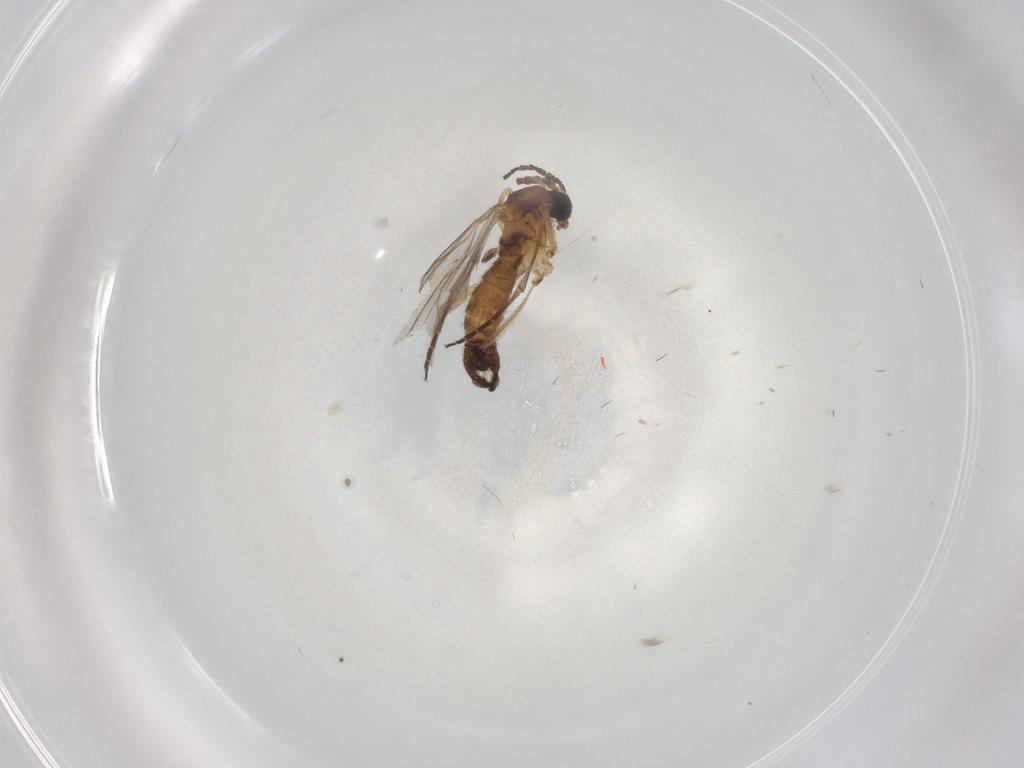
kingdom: Animalia
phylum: Arthropoda
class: Insecta
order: Diptera
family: Sciaridae
